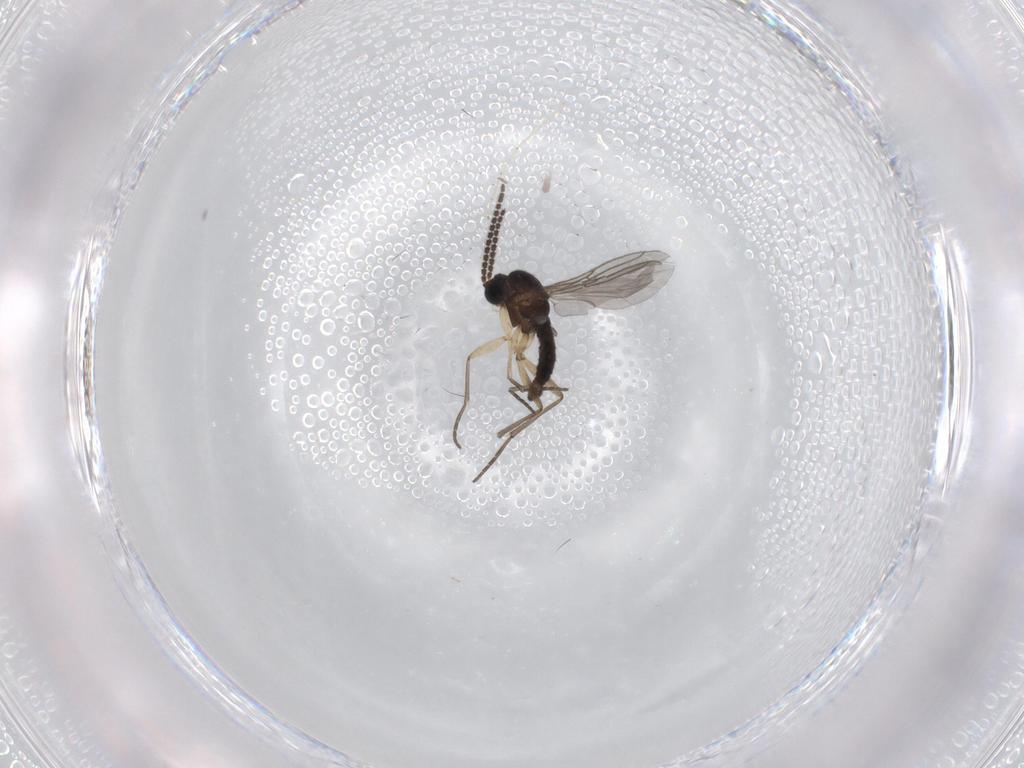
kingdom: Animalia
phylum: Arthropoda
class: Insecta
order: Diptera
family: Sciaridae
